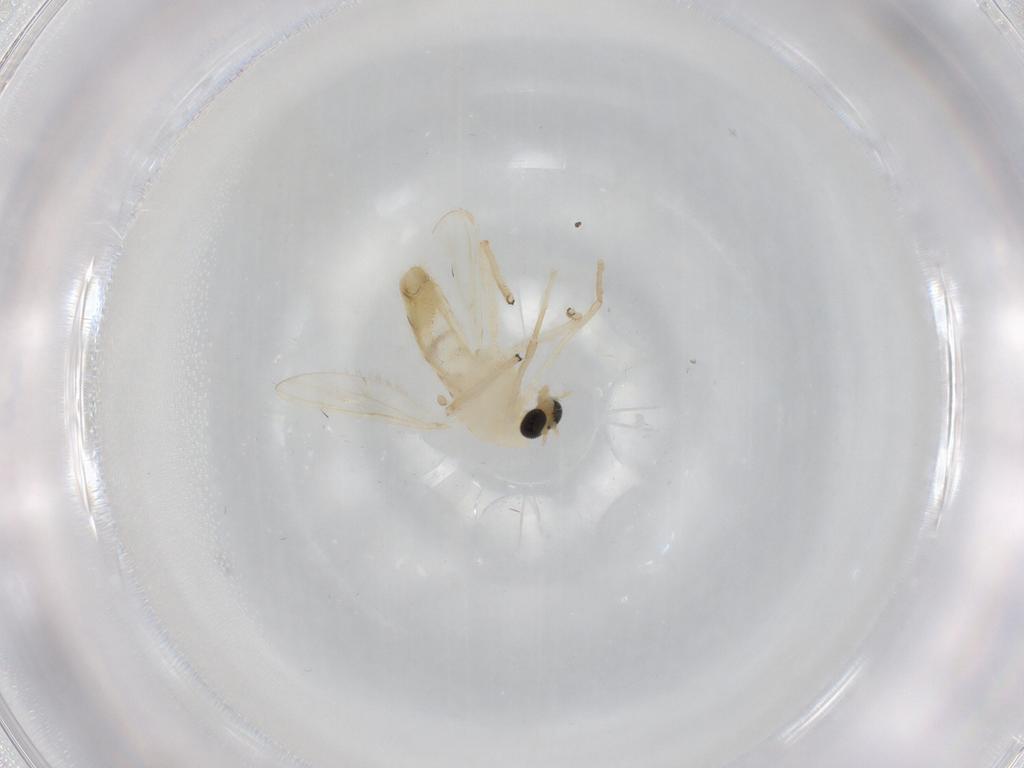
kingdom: Animalia
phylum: Arthropoda
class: Insecta
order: Diptera
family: Chironomidae
